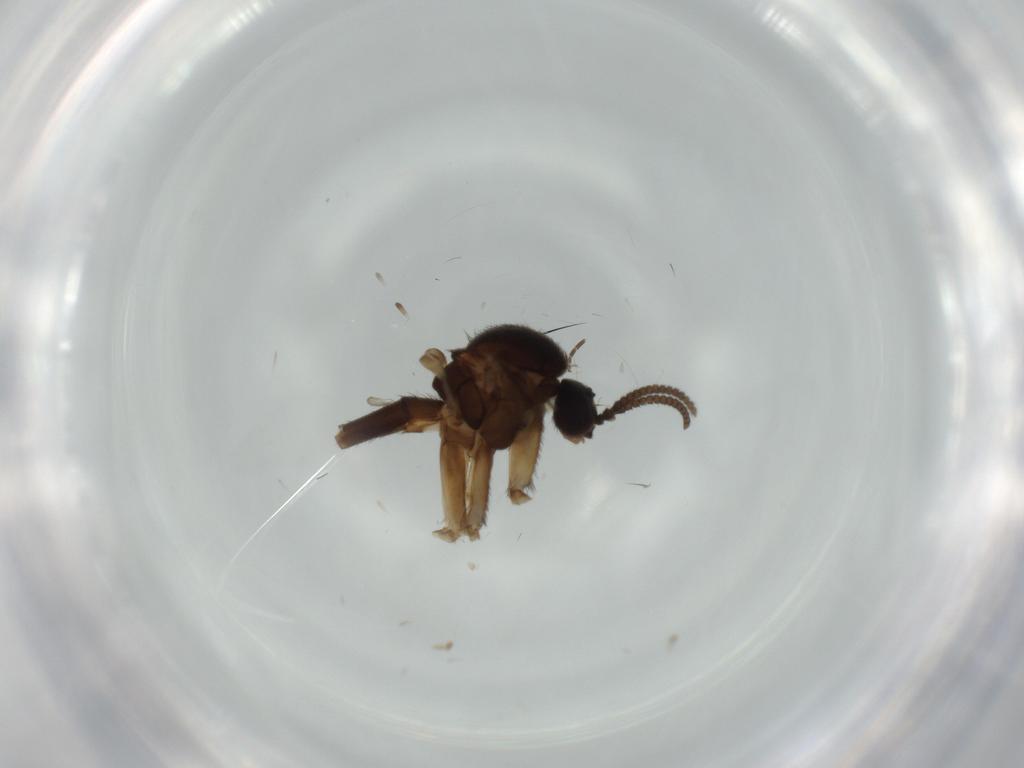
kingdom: Animalia
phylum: Arthropoda
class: Insecta
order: Diptera
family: Keroplatidae
